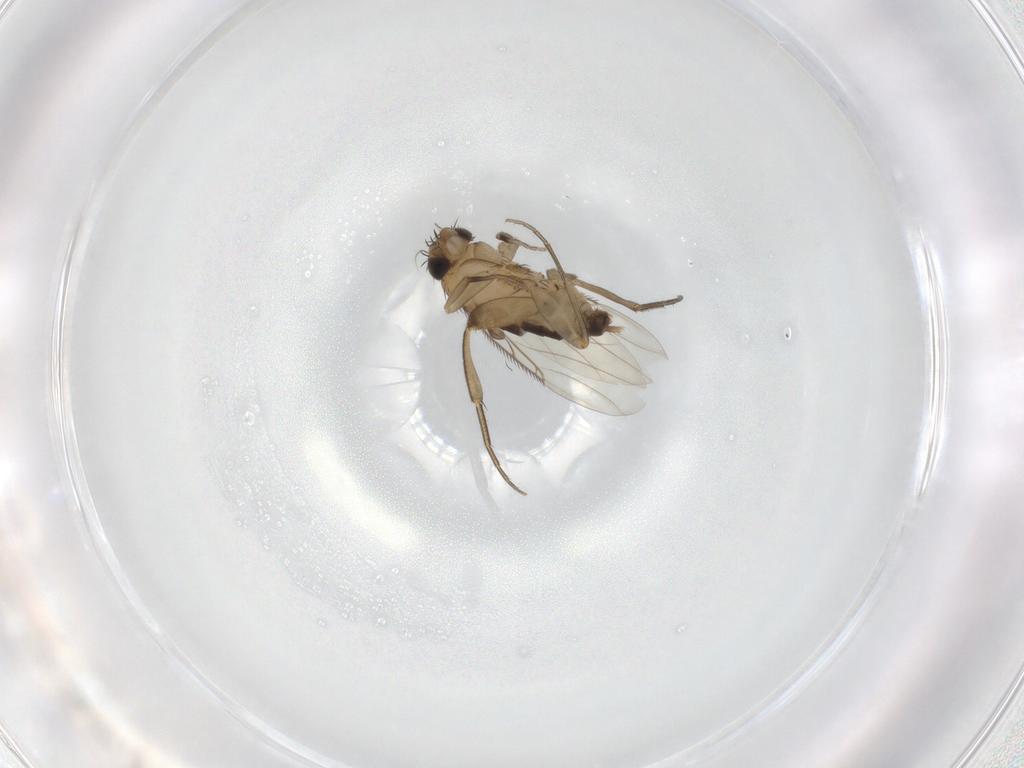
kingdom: Animalia
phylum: Arthropoda
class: Insecta
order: Diptera
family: Phoridae
